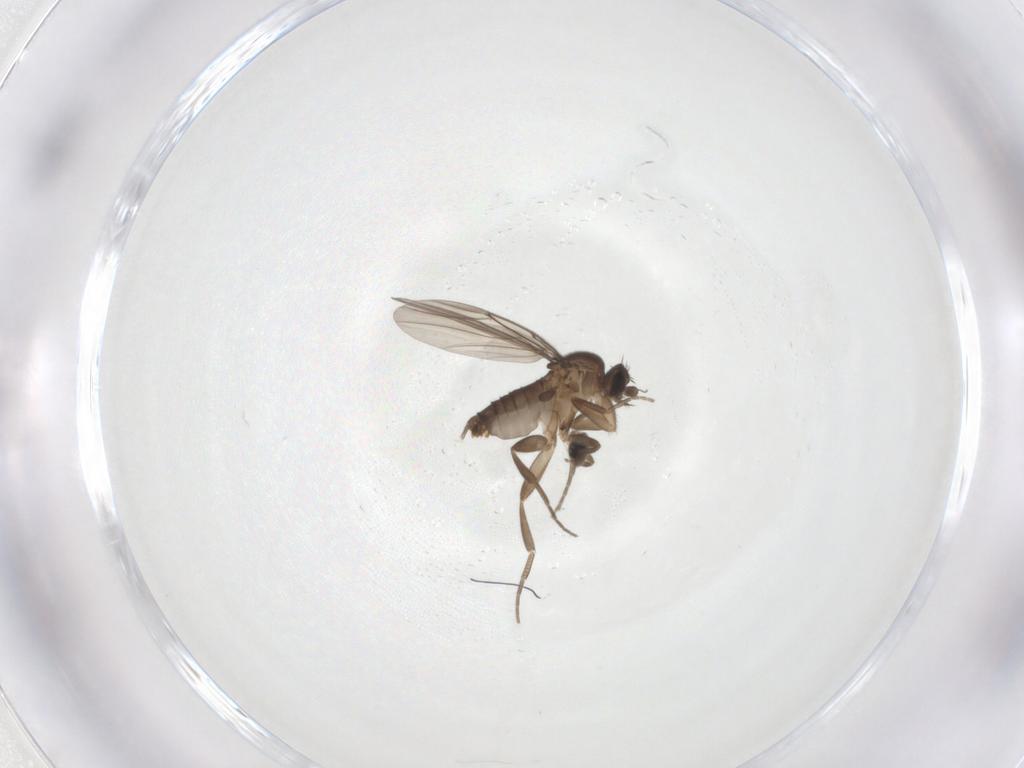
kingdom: Animalia
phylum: Arthropoda
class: Insecta
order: Diptera
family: Phoridae
